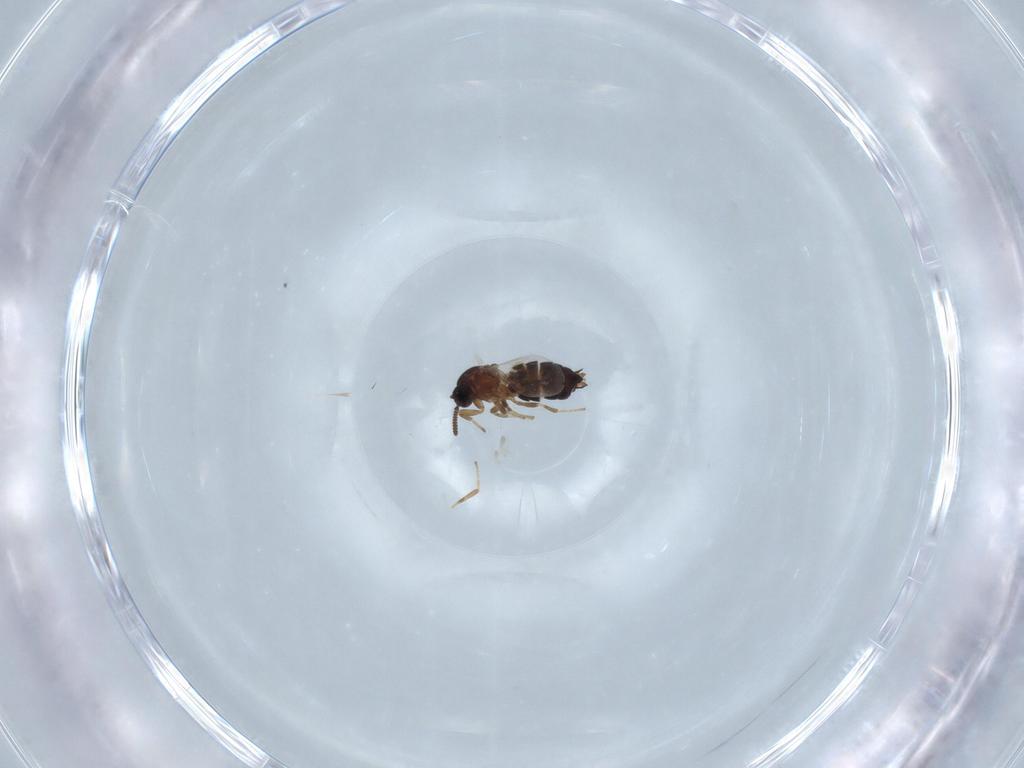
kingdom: Animalia
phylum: Arthropoda
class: Insecta
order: Diptera
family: Scatopsidae
